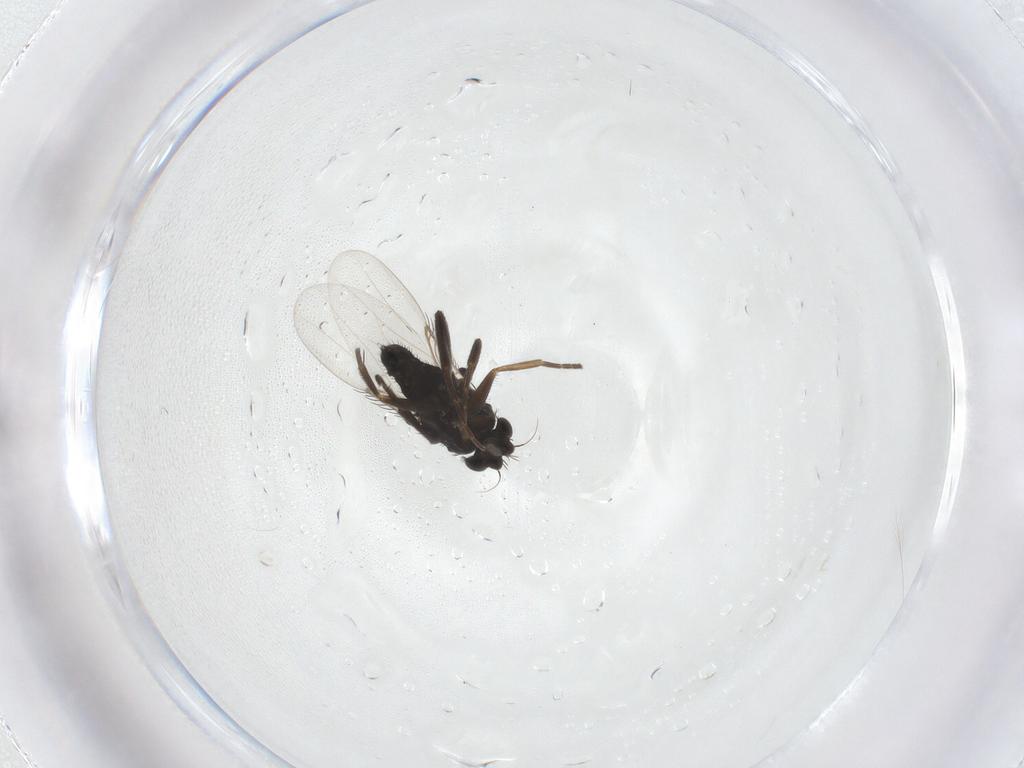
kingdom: Animalia
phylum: Arthropoda
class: Insecta
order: Diptera
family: Phoridae
